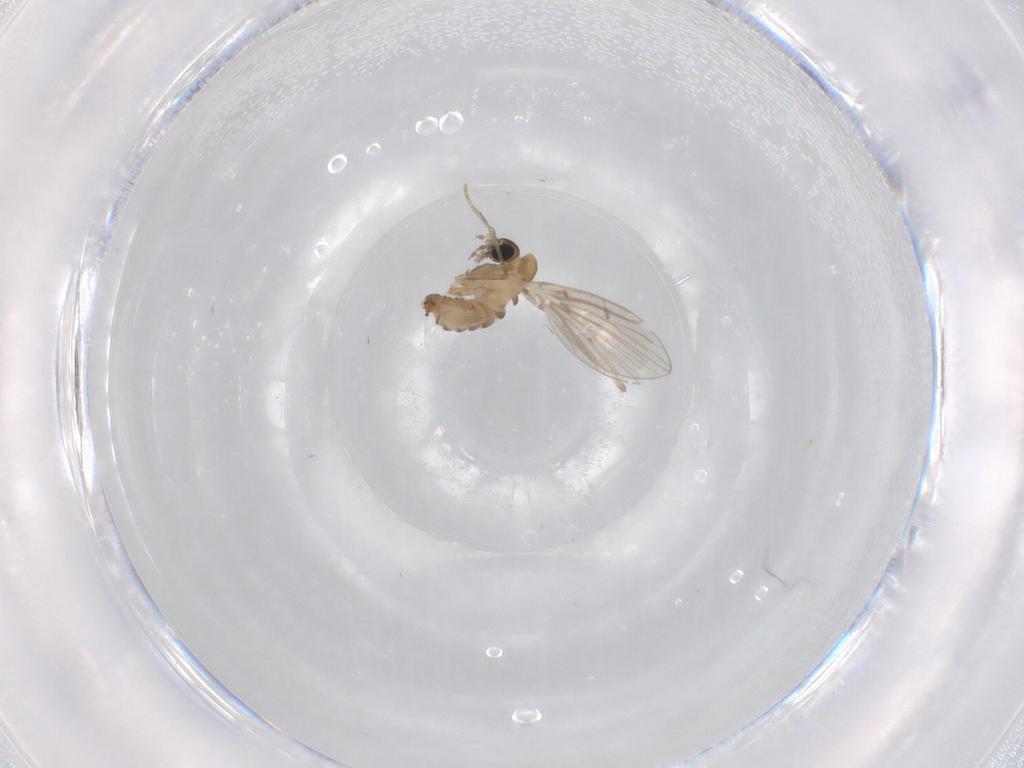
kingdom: Animalia
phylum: Arthropoda
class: Insecta
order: Diptera
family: Psychodidae
